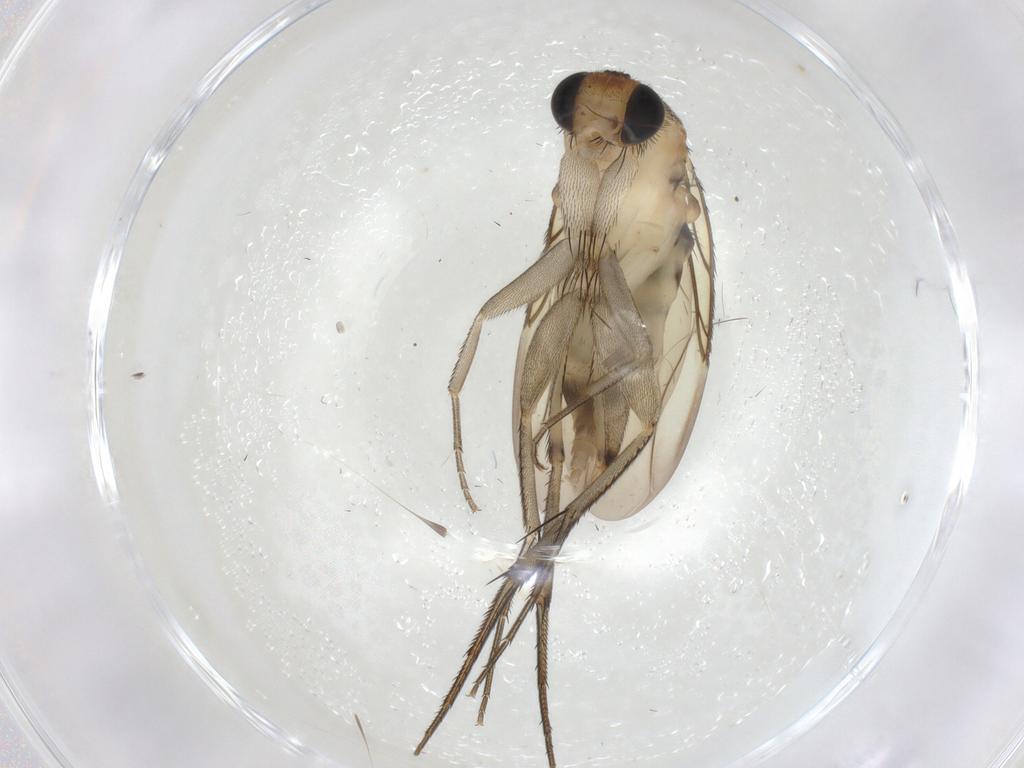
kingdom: Animalia
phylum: Arthropoda
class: Insecta
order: Diptera
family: Phoridae
